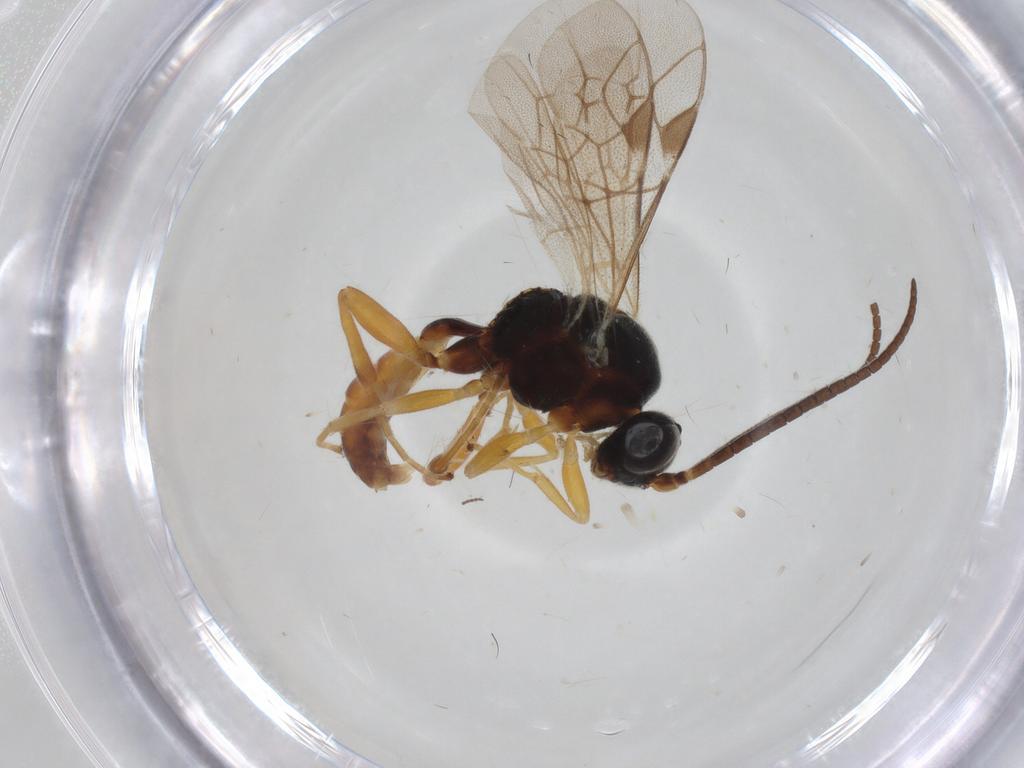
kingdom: Animalia
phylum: Arthropoda
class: Insecta
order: Hymenoptera
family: Ichneumonidae
